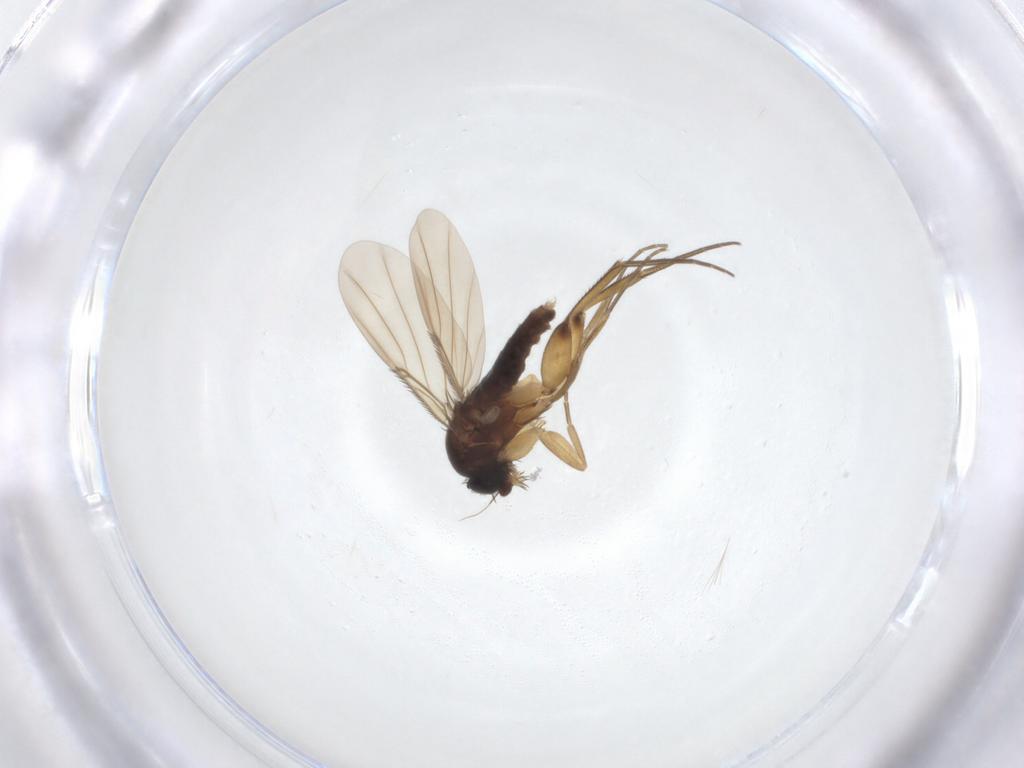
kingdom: Animalia
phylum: Arthropoda
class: Insecta
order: Diptera
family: Phoridae
